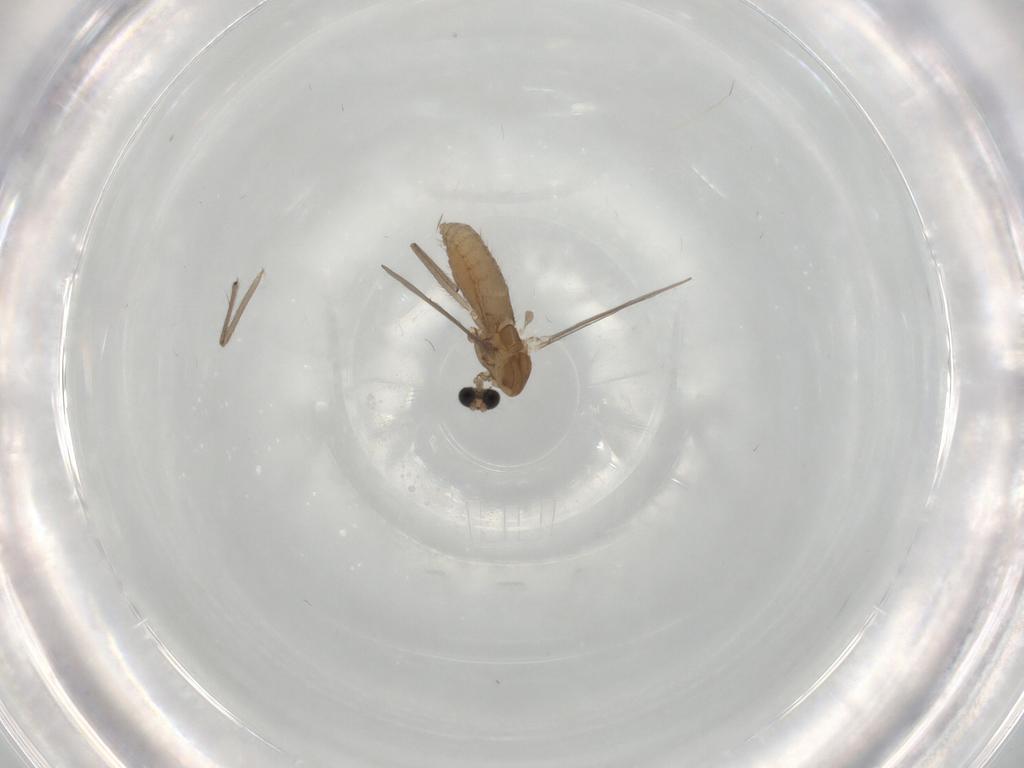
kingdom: Animalia
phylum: Arthropoda
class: Insecta
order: Diptera
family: Chironomidae
